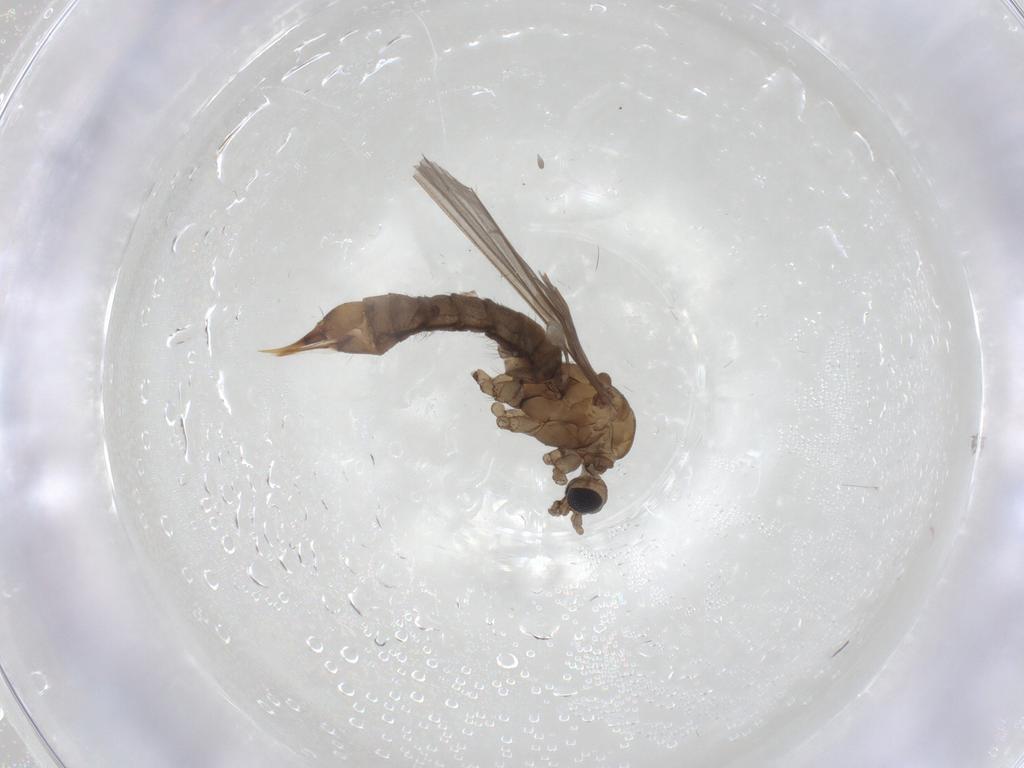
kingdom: Animalia
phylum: Arthropoda
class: Insecta
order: Diptera
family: Limoniidae
